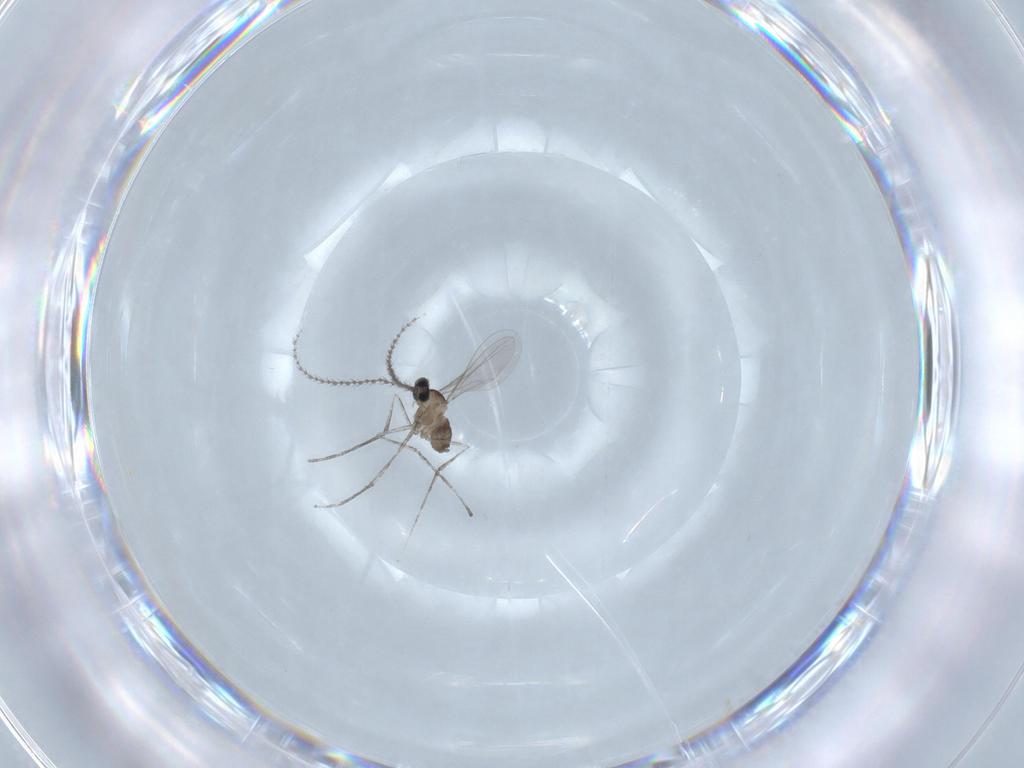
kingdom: Animalia
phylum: Arthropoda
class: Insecta
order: Diptera
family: Cecidomyiidae
